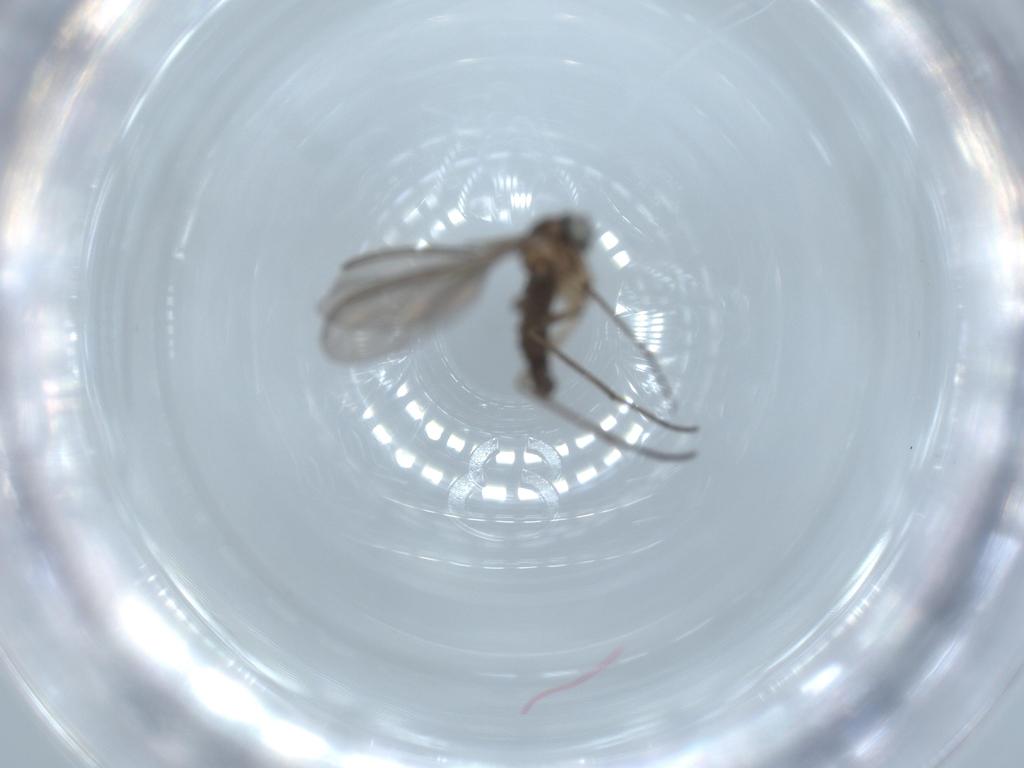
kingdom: Animalia
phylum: Arthropoda
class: Insecta
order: Diptera
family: Sciaridae
